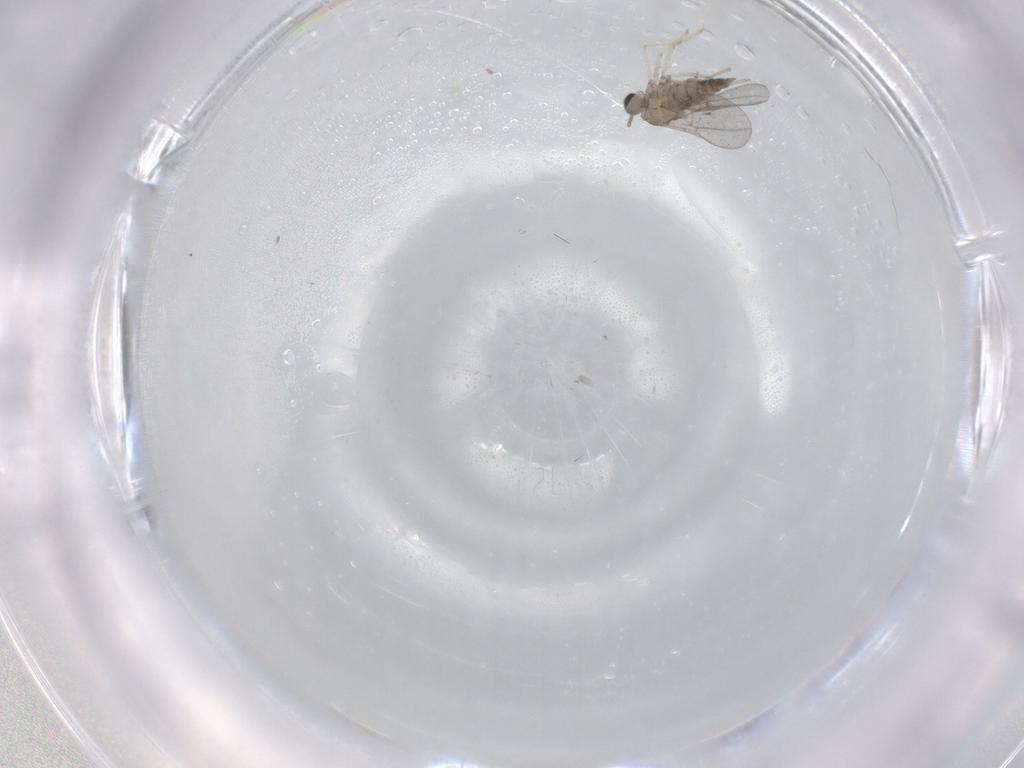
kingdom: Animalia
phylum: Arthropoda
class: Insecta
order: Diptera
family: Cecidomyiidae
